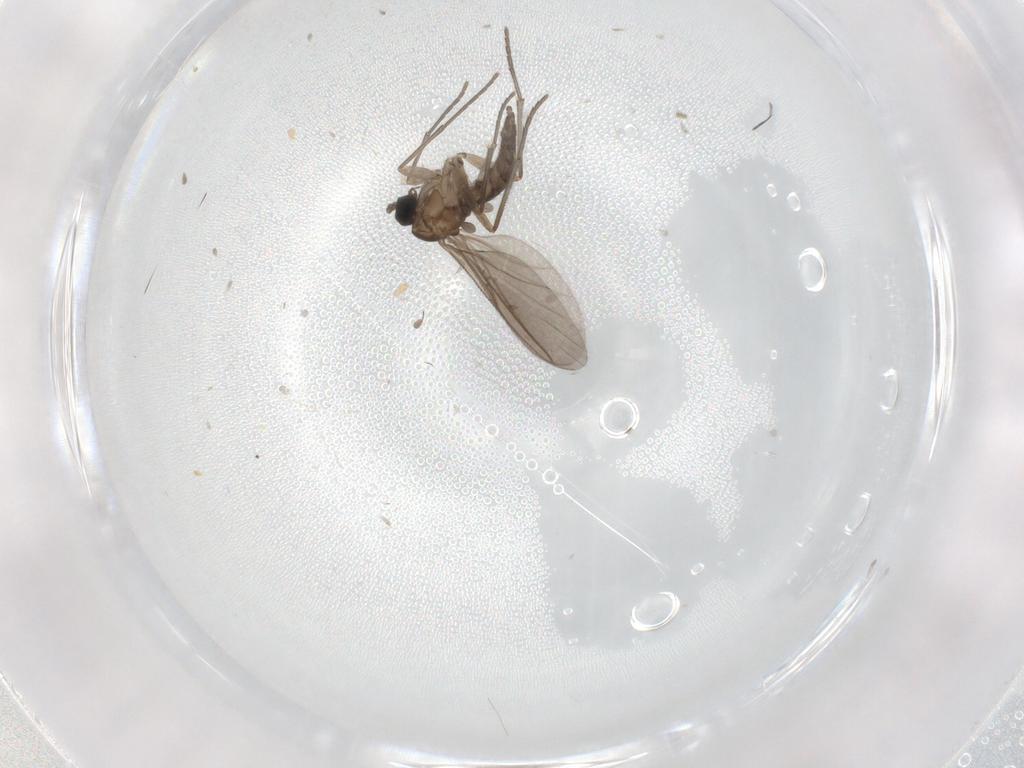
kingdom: Animalia
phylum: Arthropoda
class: Insecta
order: Diptera
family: Sciaridae
